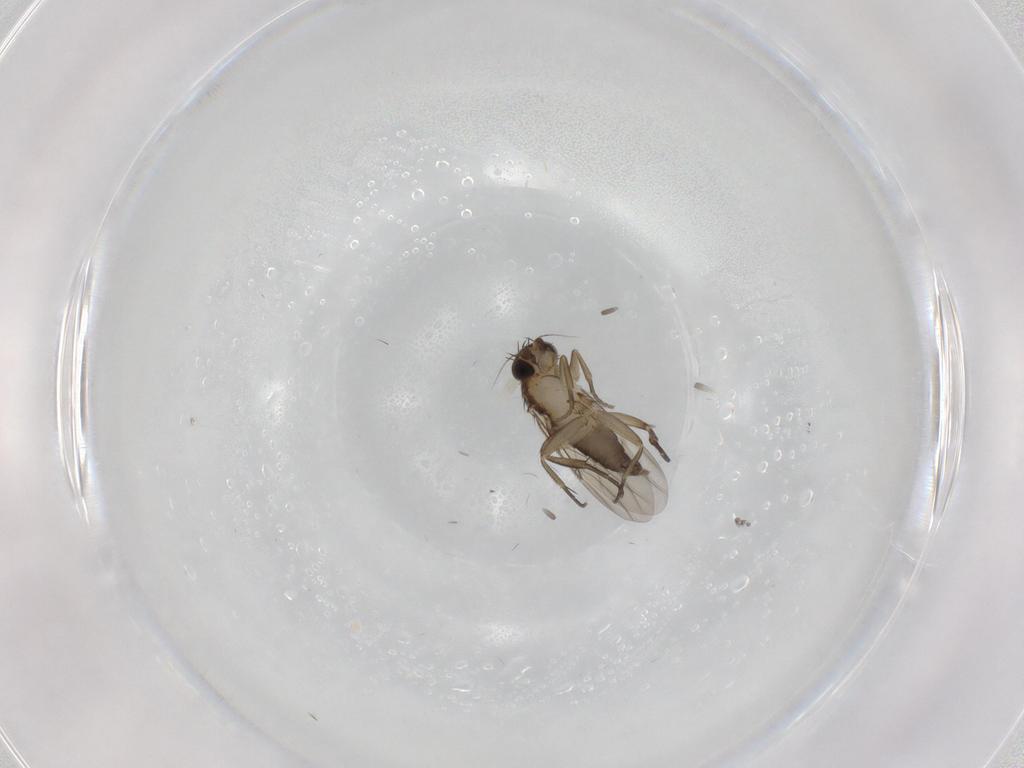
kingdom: Animalia
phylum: Arthropoda
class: Insecta
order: Diptera
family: Phoridae
